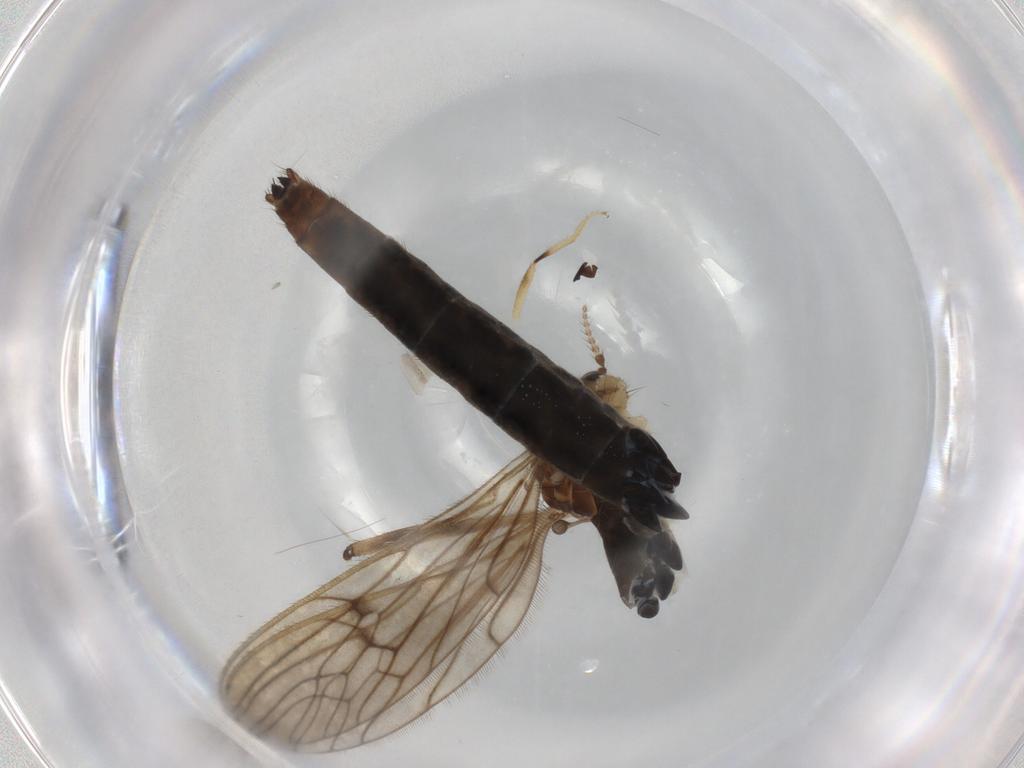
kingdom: Animalia
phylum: Arthropoda
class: Insecta
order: Diptera
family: Limoniidae
